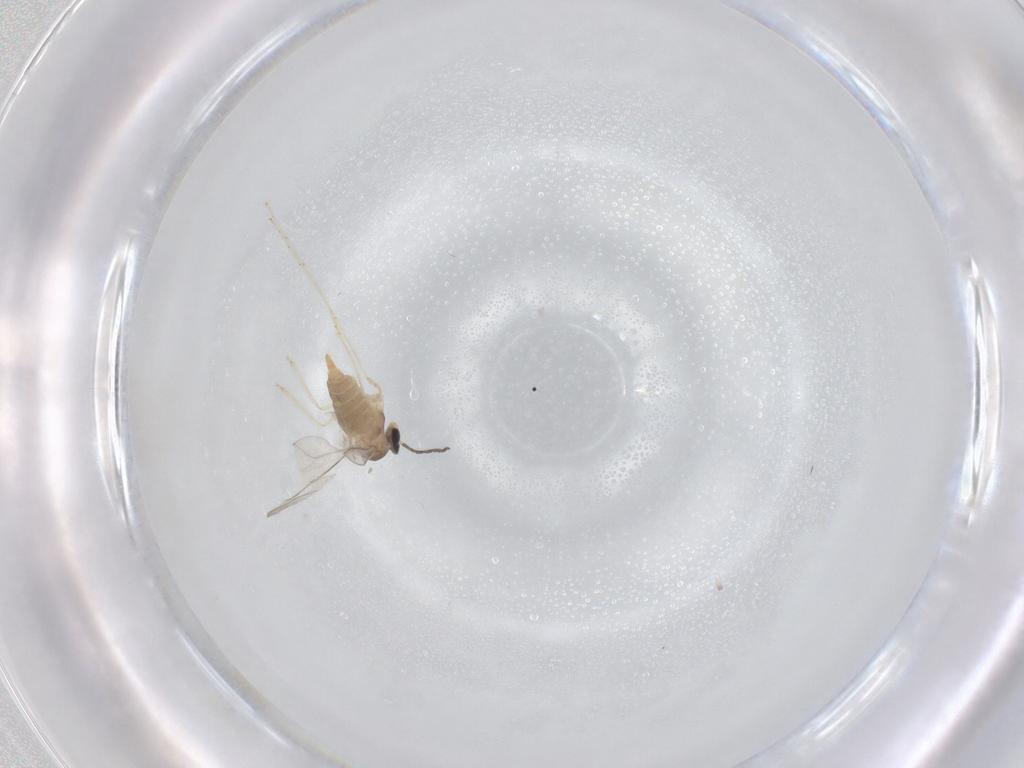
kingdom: Animalia
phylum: Arthropoda
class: Insecta
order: Diptera
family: Cecidomyiidae
